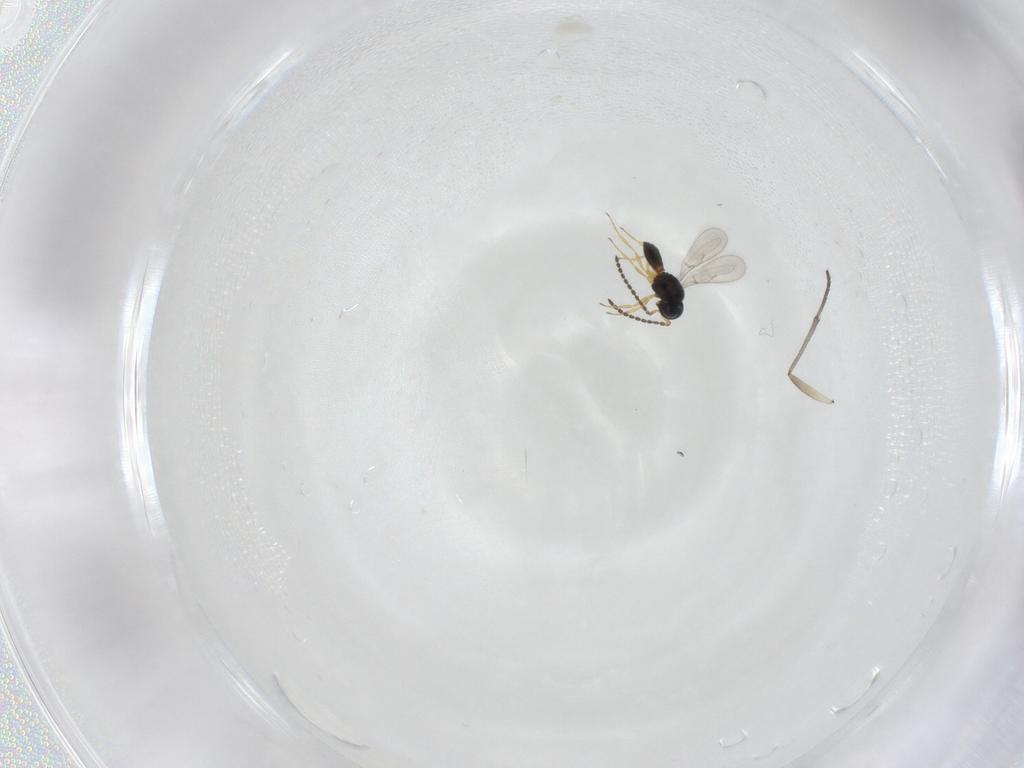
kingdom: Animalia
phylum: Arthropoda
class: Insecta
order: Hymenoptera
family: Scelionidae
